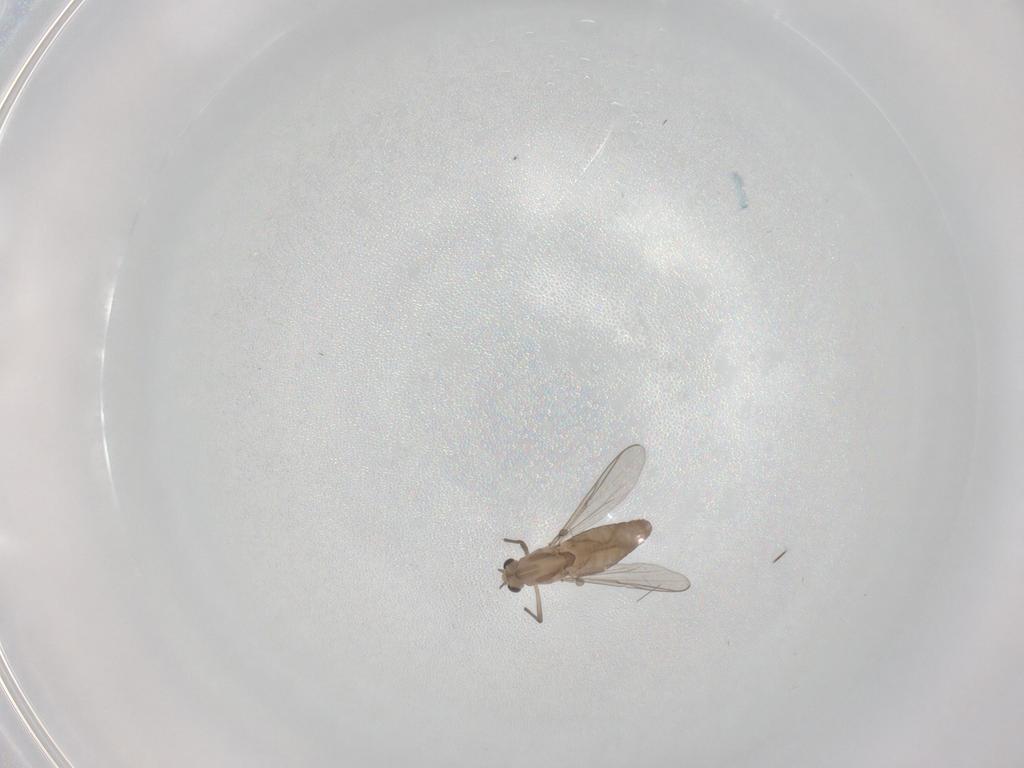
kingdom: Animalia
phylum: Arthropoda
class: Insecta
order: Diptera
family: Chironomidae
